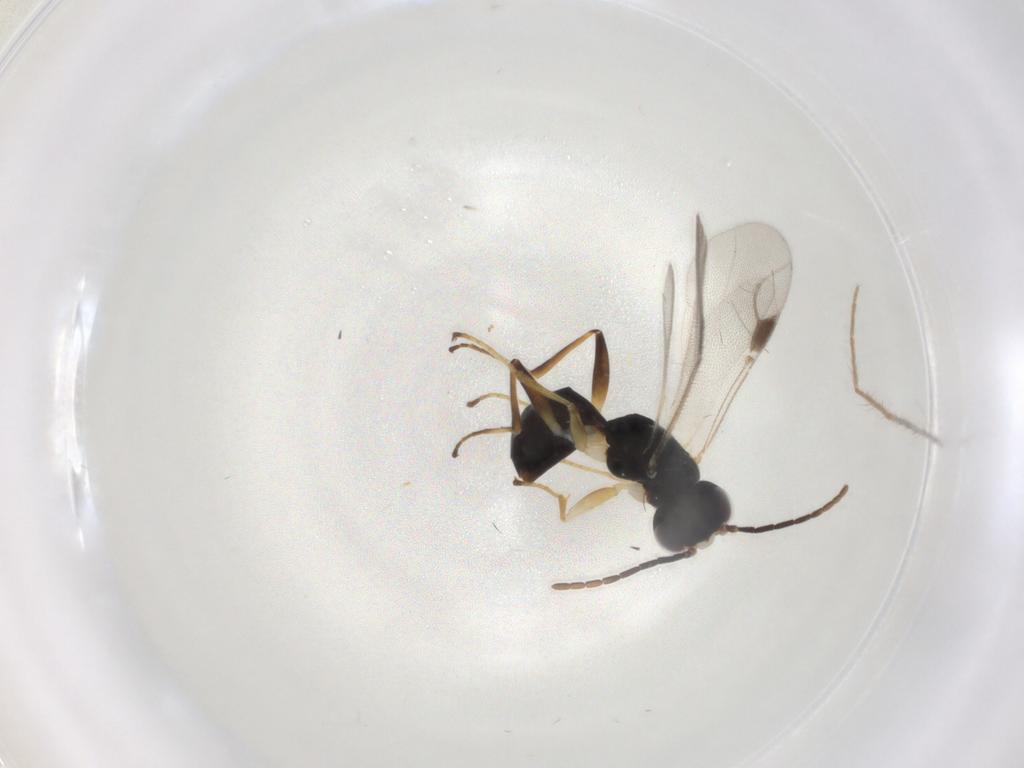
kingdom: Animalia
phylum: Arthropoda
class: Insecta
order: Hymenoptera
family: Dryinidae
